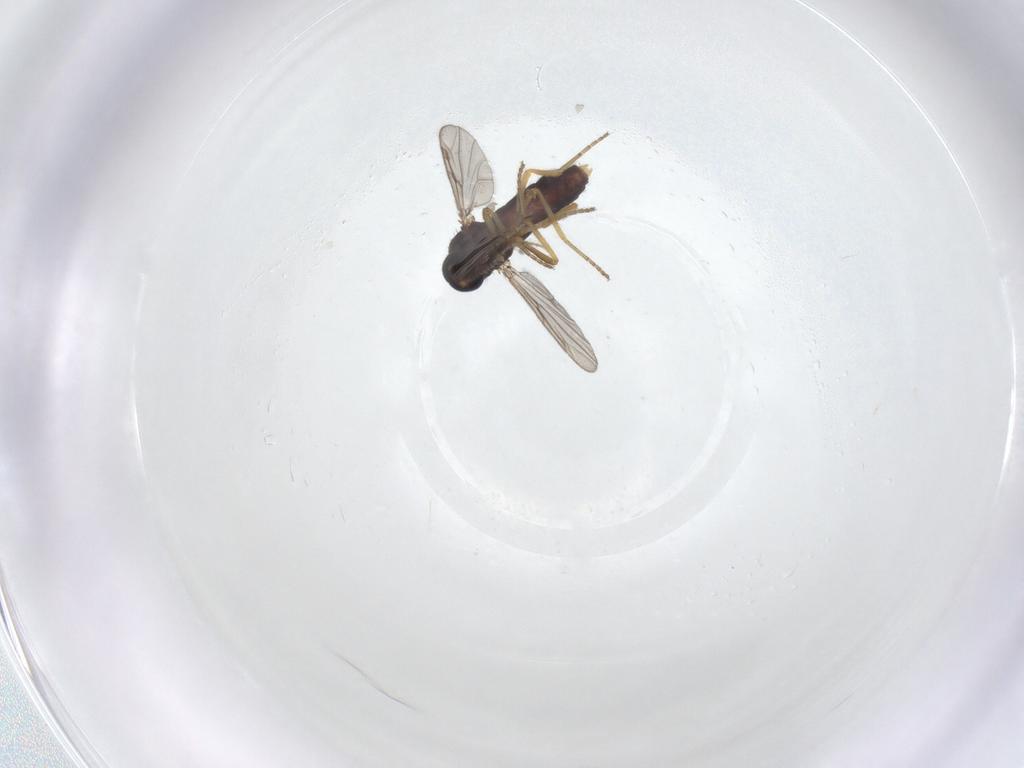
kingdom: Animalia
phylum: Arthropoda
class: Insecta
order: Diptera
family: Ceratopogonidae
